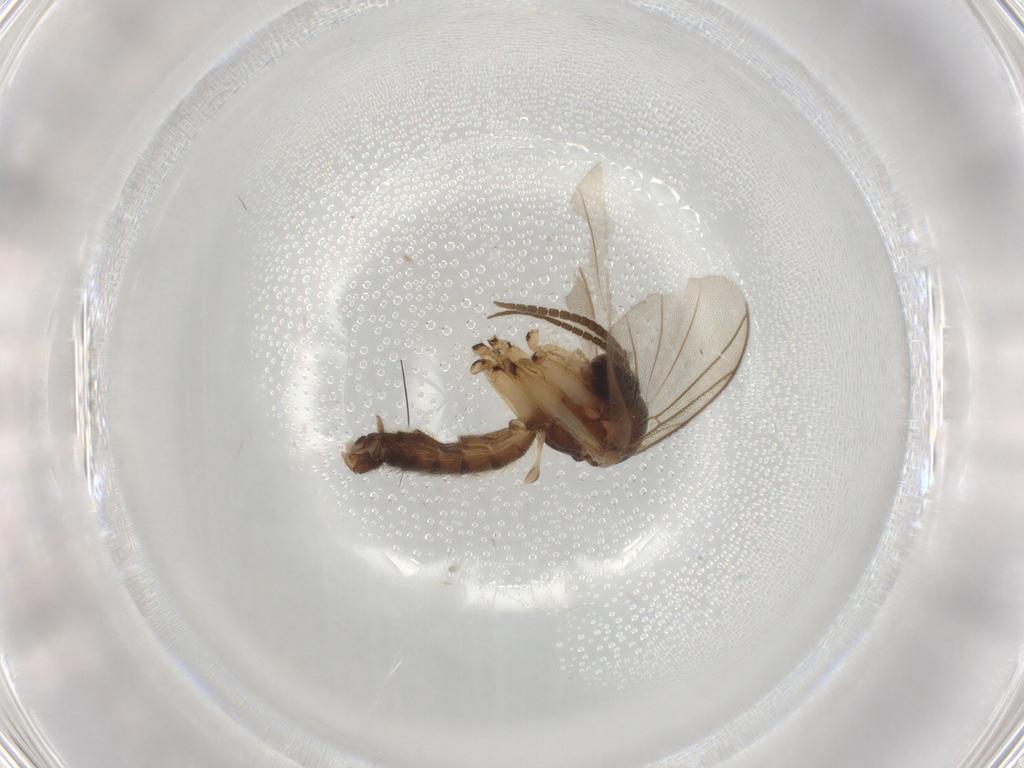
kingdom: Animalia
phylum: Arthropoda
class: Insecta
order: Diptera
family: Mycetophilidae
